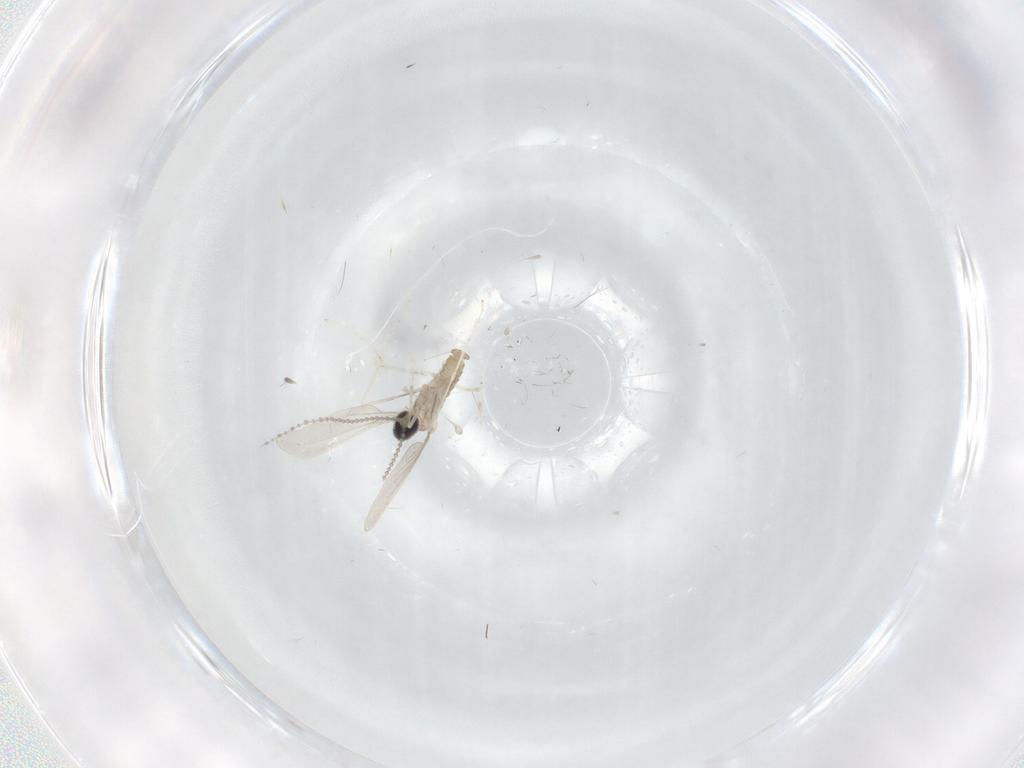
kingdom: Animalia
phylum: Arthropoda
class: Insecta
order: Diptera
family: Cecidomyiidae
